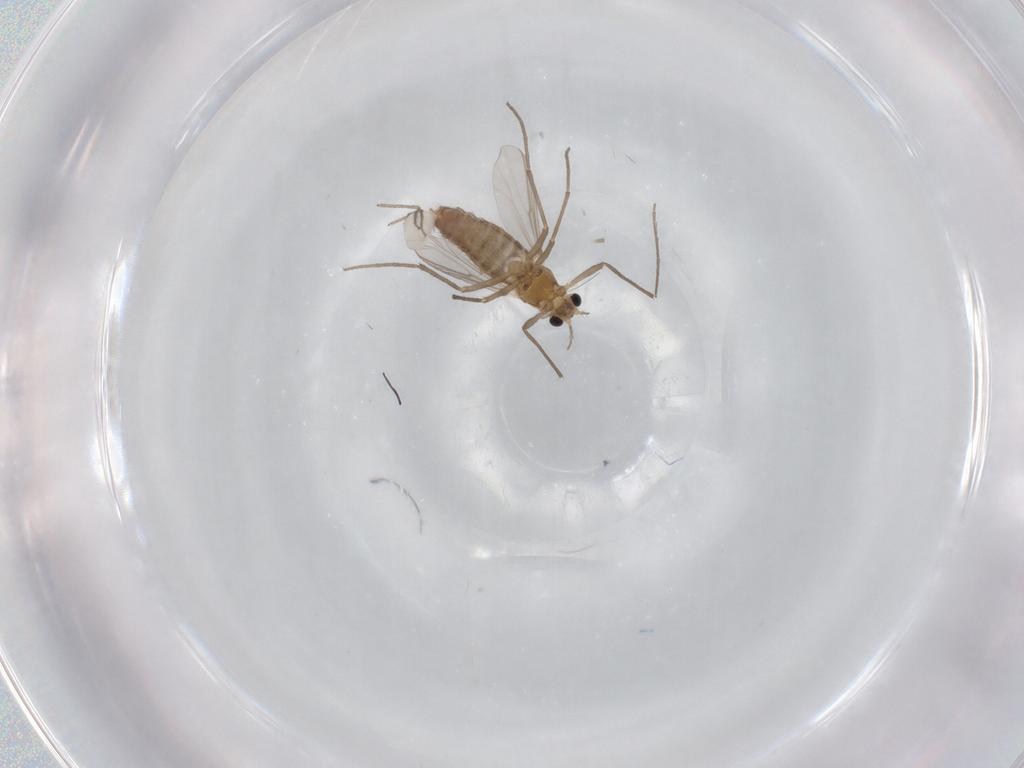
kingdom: Animalia
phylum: Arthropoda
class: Insecta
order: Diptera
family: Chironomidae
